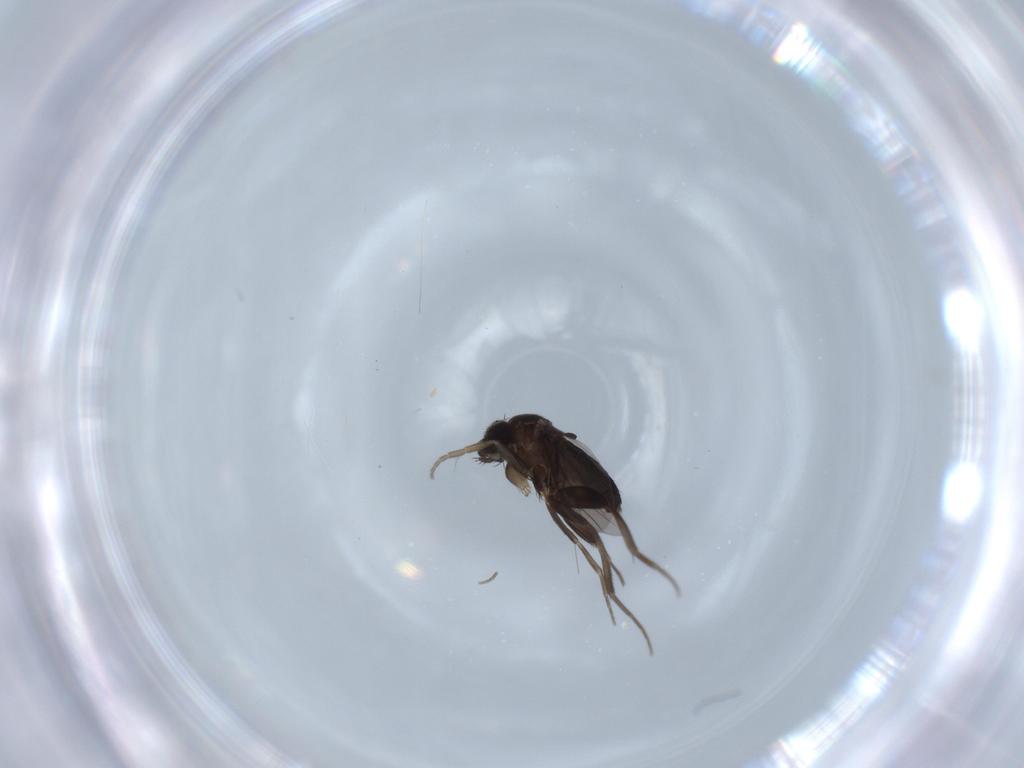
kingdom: Animalia
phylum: Arthropoda
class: Insecta
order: Diptera
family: Phoridae
